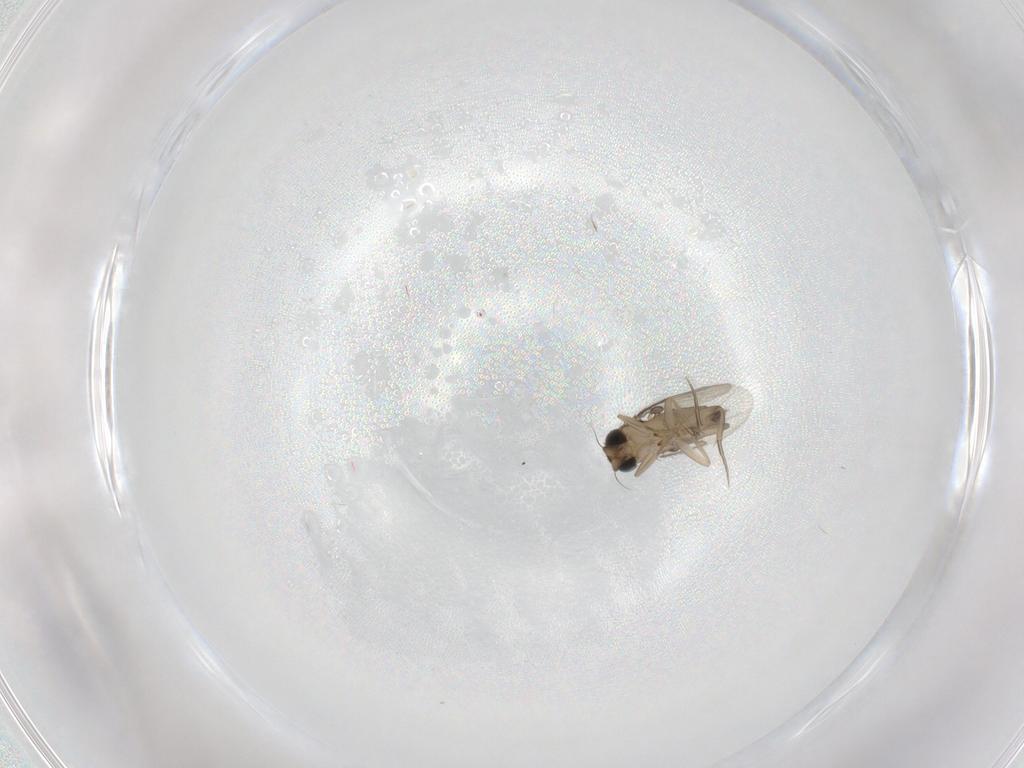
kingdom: Animalia
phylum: Arthropoda
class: Insecta
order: Diptera
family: Phoridae
